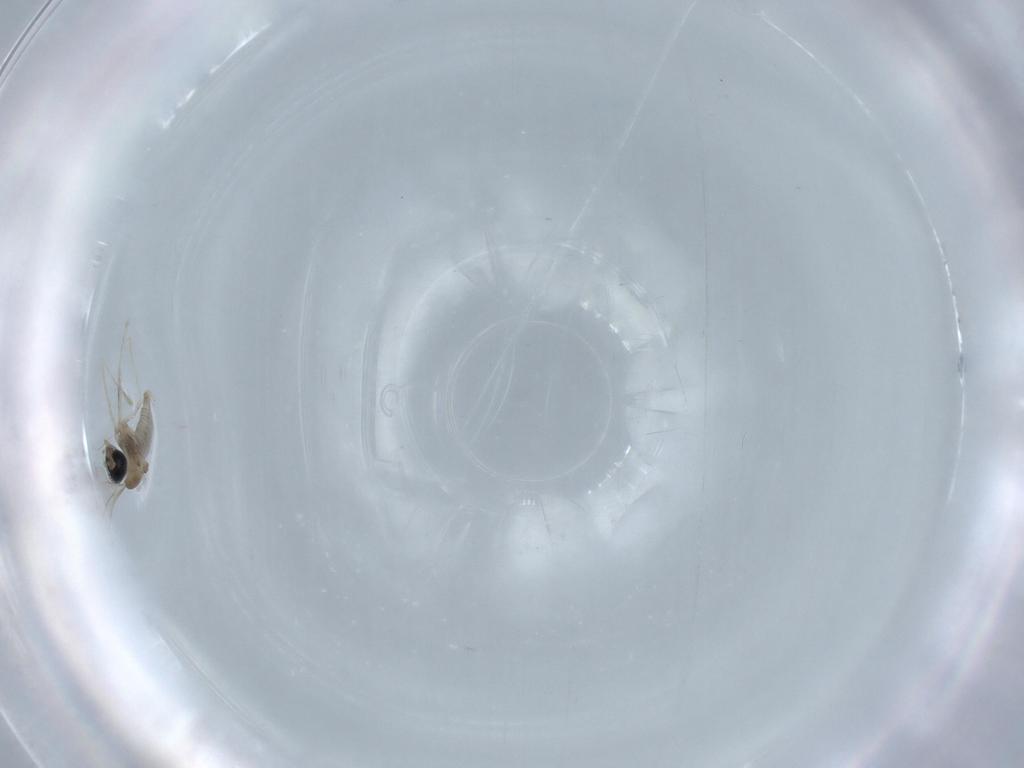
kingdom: Animalia
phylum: Arthropoda
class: Insecta
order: Diptera
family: Cecidomyiidae
